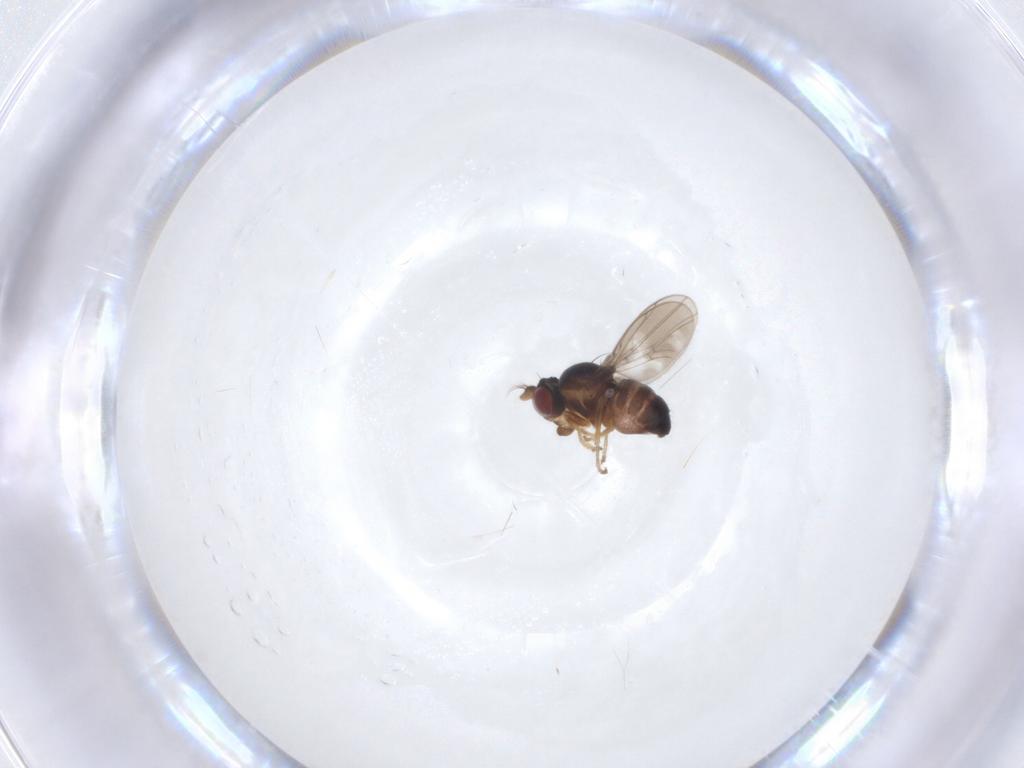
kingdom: Animalia
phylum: Arthropoda
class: Insecta
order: Diptera
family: Ephydridae
